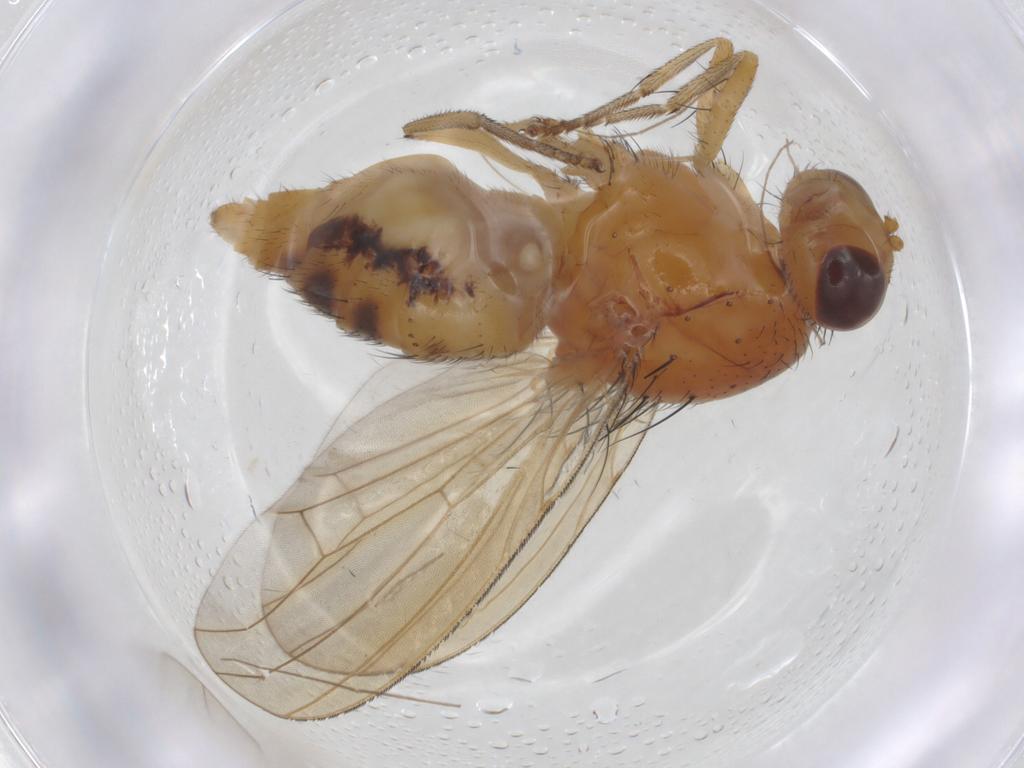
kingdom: Animalia
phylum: Arthropoda
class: Insecta
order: Diptera
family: Chironomidae
